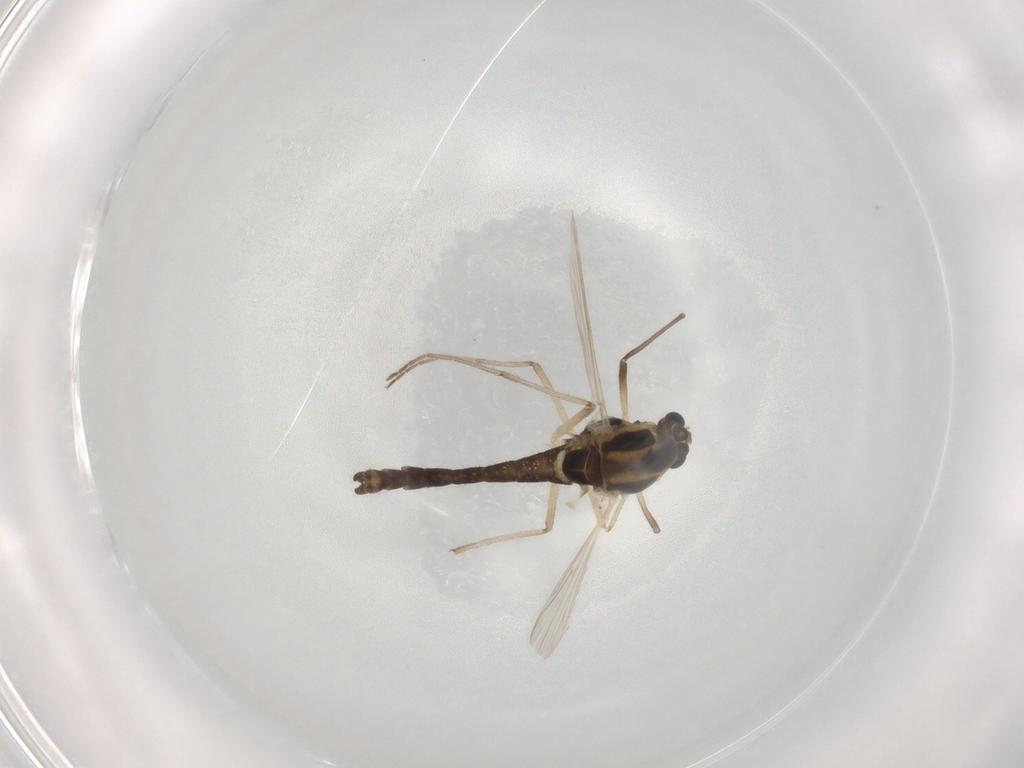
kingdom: Animalia
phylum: Arthropoda
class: Insecta
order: Diptera
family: Chironomidae
